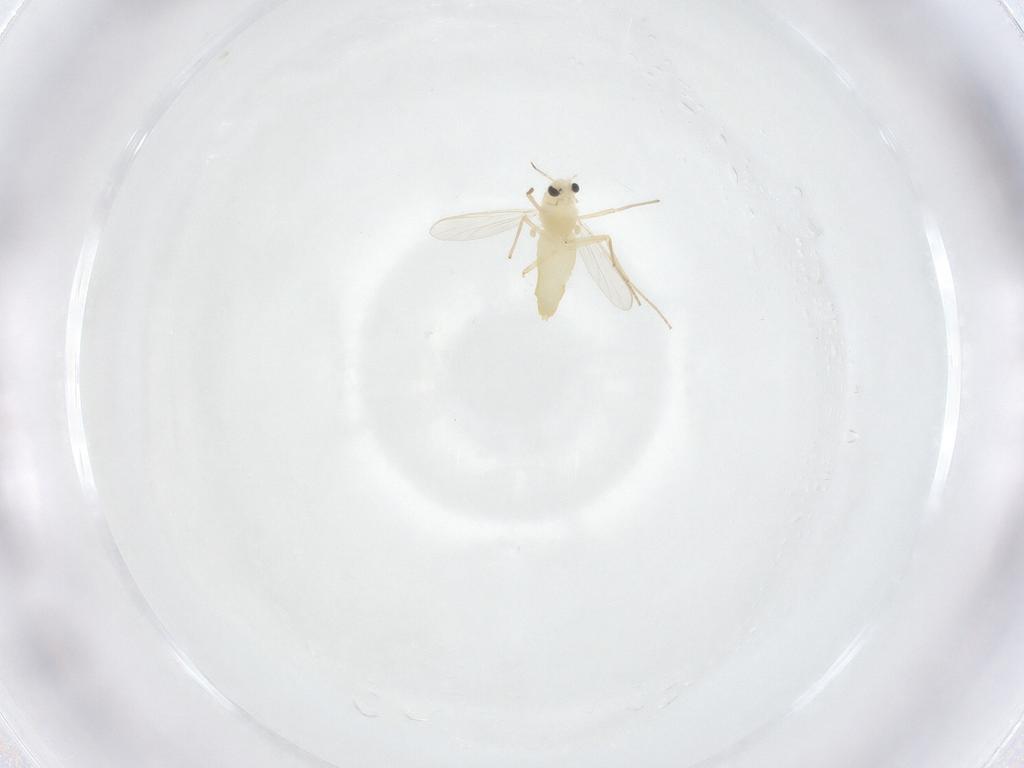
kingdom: Animalia
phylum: Arthropoda
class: Insecta
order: Diptera
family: Chironomidae
